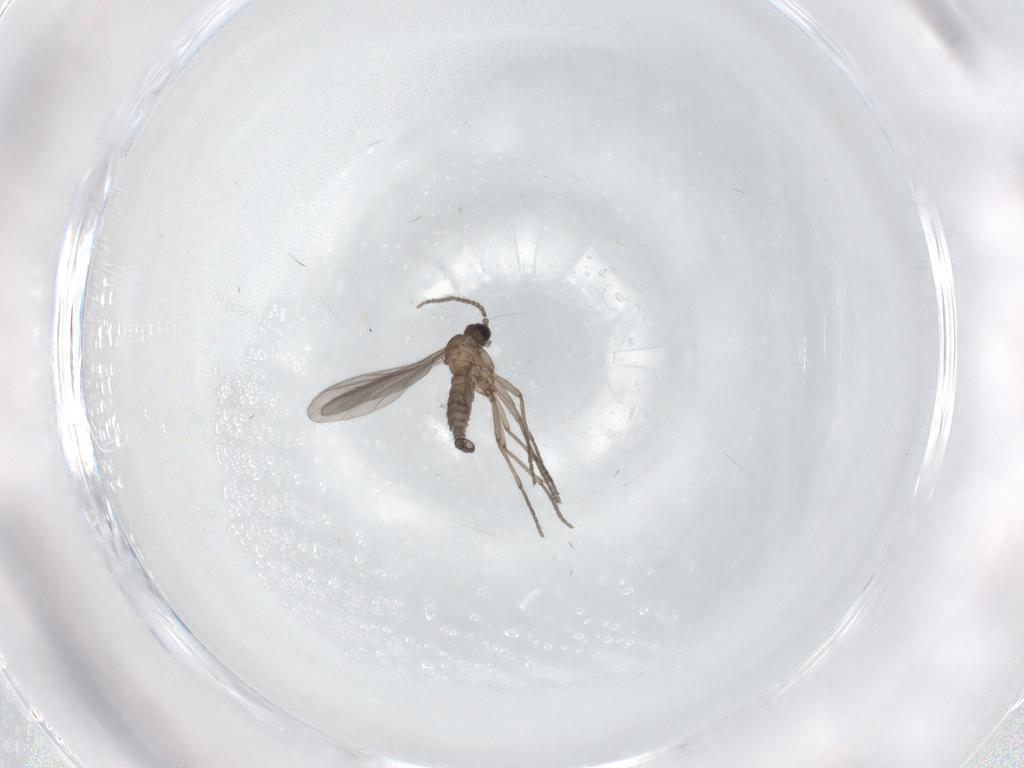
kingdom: Animalia
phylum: Arthropoda
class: Insecta
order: Diptera
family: Sciaridae
